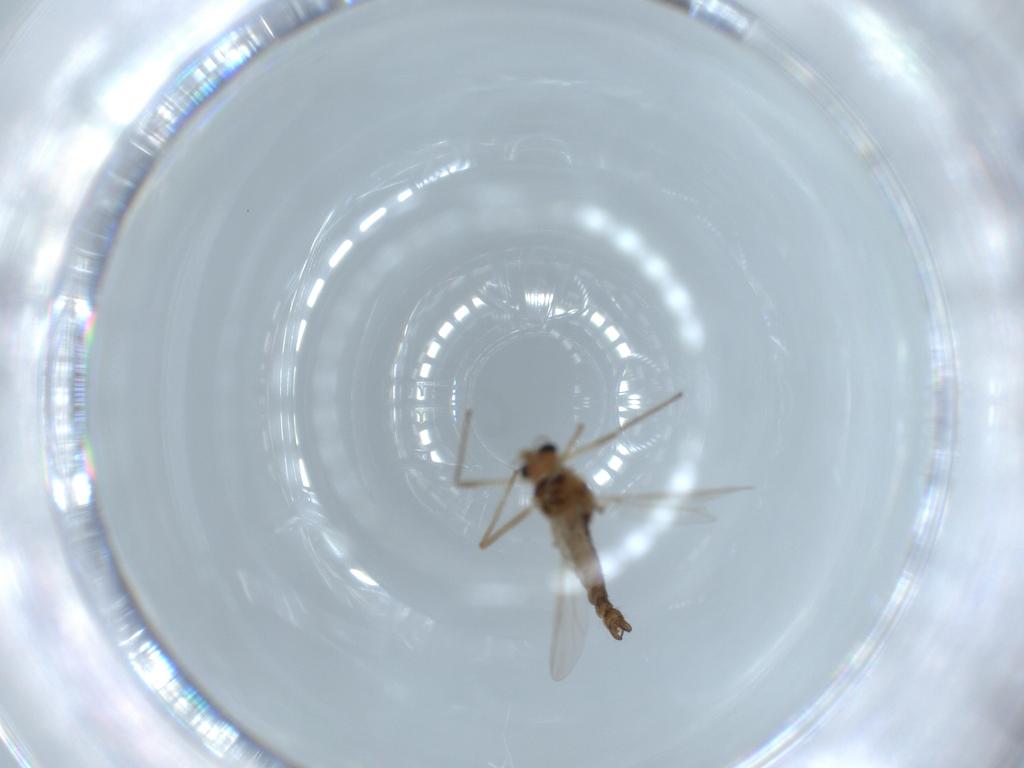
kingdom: Animalia
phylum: Arthropoda
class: Insecta
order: Diptera
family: Chironomidae
